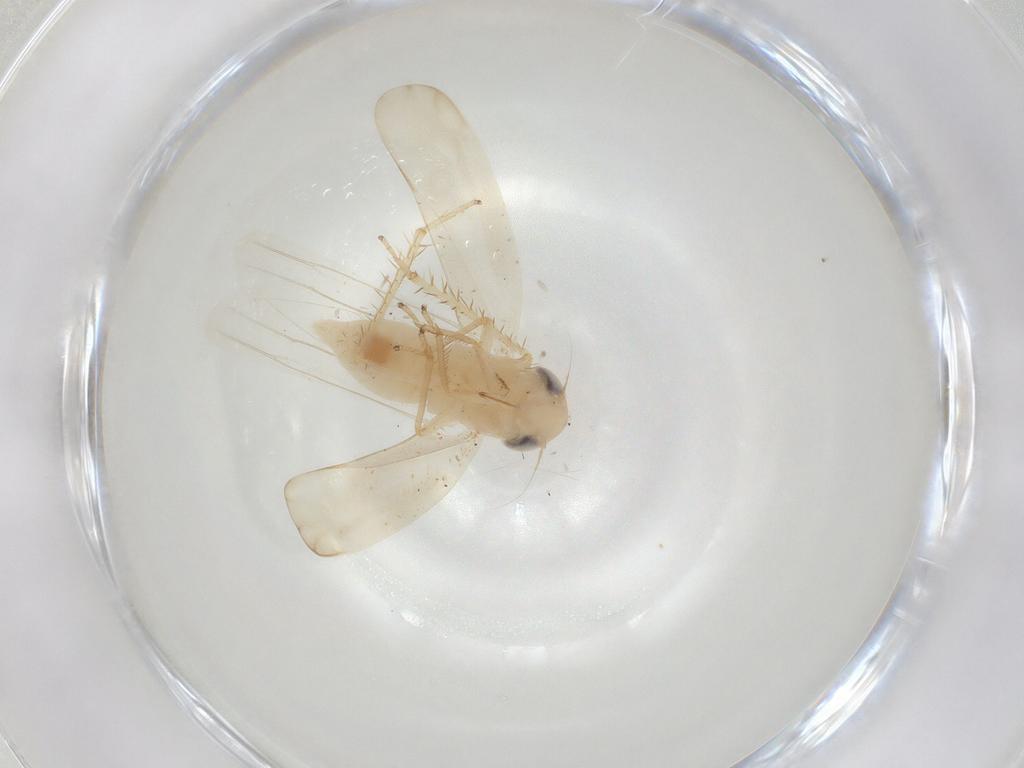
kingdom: Animalia
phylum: Arthropoda
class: Insecta
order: Hemiptera
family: Cicadellidae
